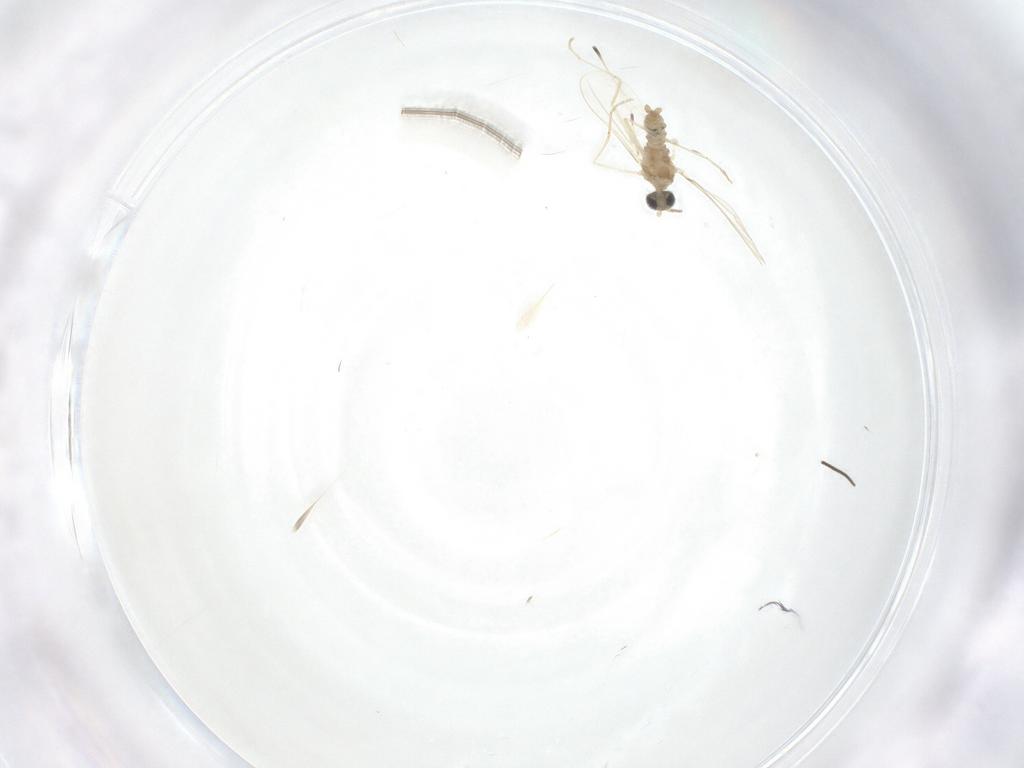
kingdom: Animalia
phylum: Arthropoda
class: Insecta
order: Diptera
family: Cecidomyiidae
